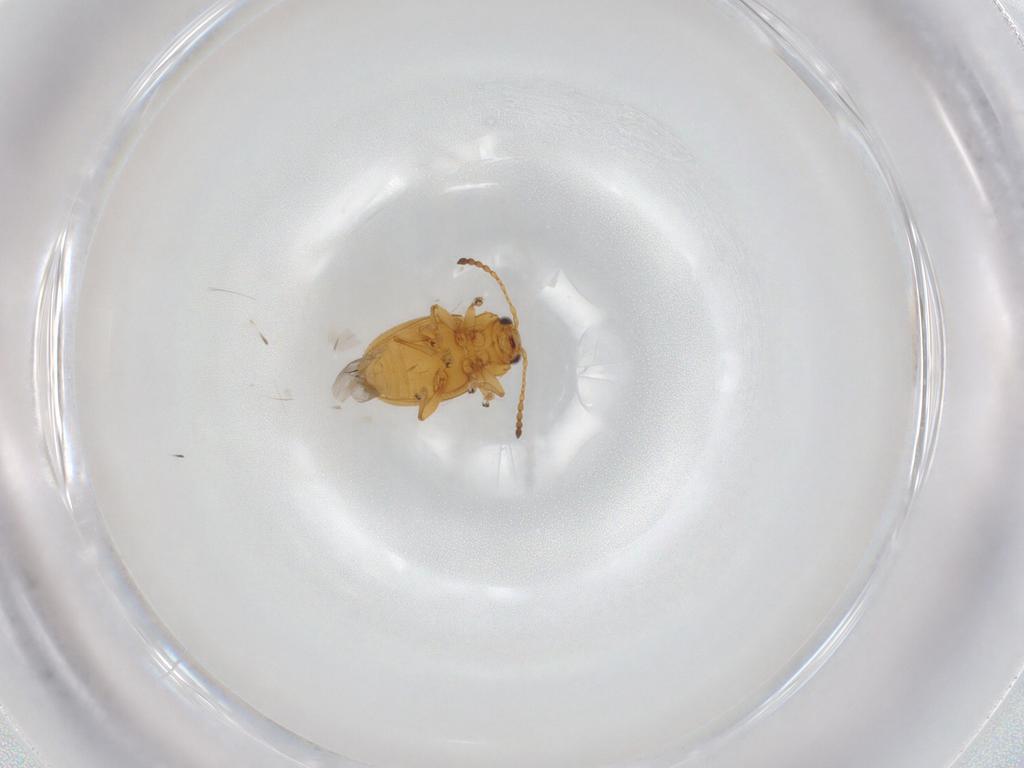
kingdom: Animalia
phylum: Arthropoda
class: Insecta
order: Coleoptera
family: Chrysomelidae
